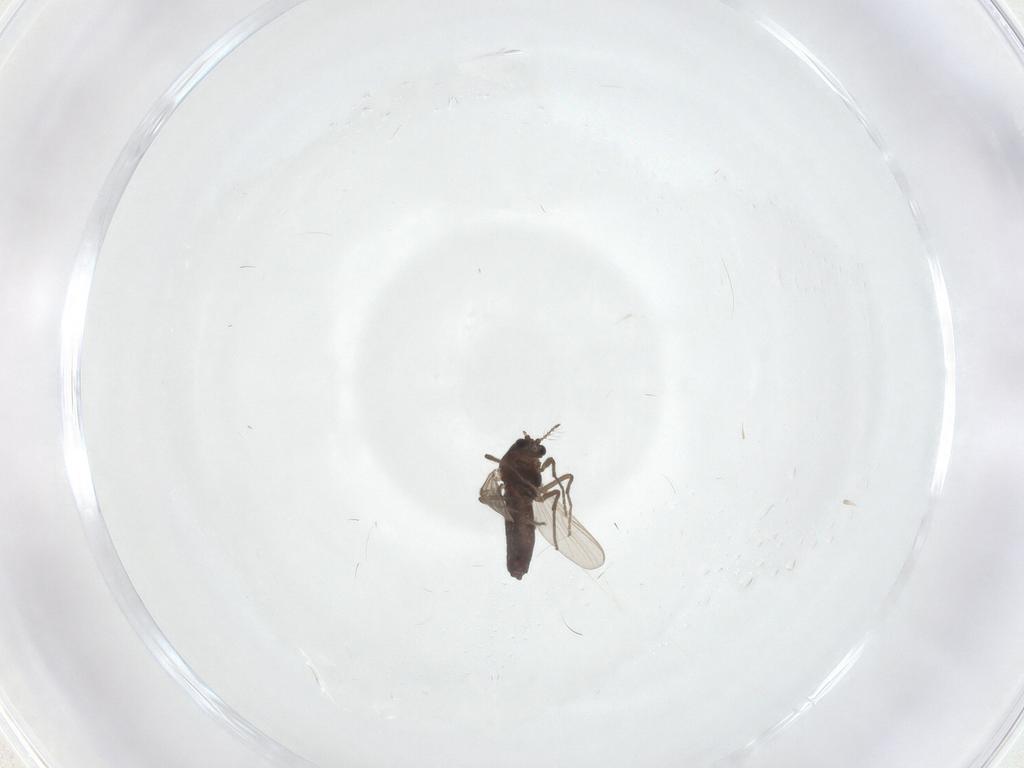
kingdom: Animalia
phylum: Arthropoda
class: Insecta
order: Diptera
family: Chironomidae
